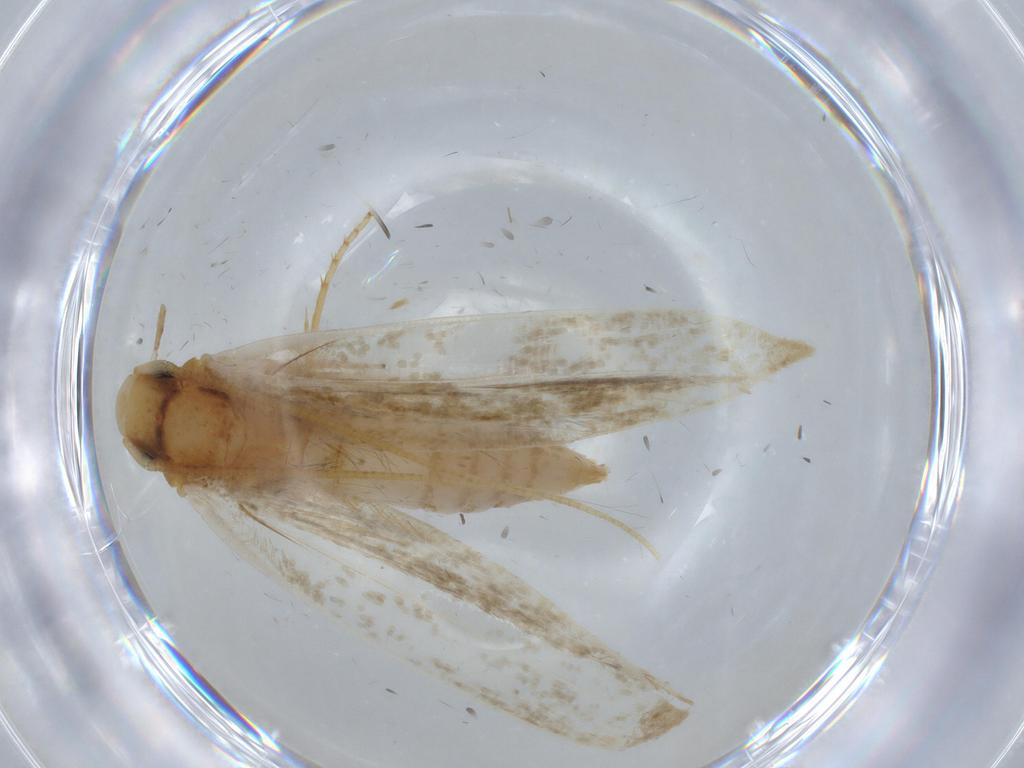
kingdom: Animalia
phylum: Arthropoda
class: Insecta
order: Lepidoptera
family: Tineidae
